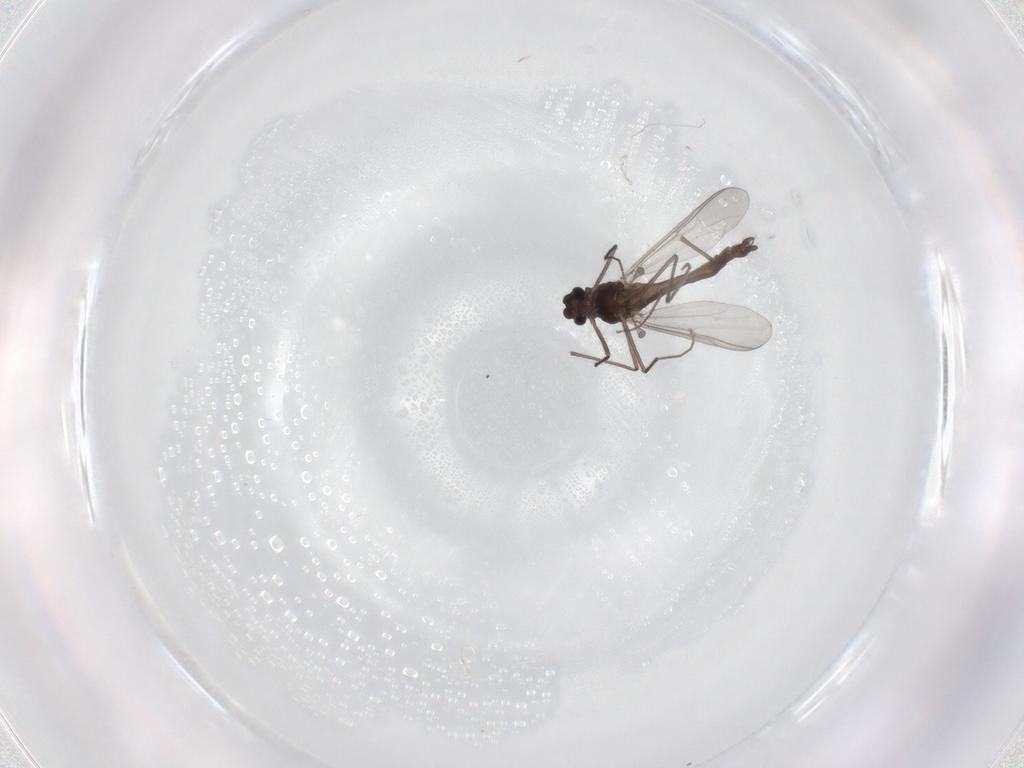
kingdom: Animalia
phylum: Arthropoda
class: Insecta
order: Diptera
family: Chironomidae
